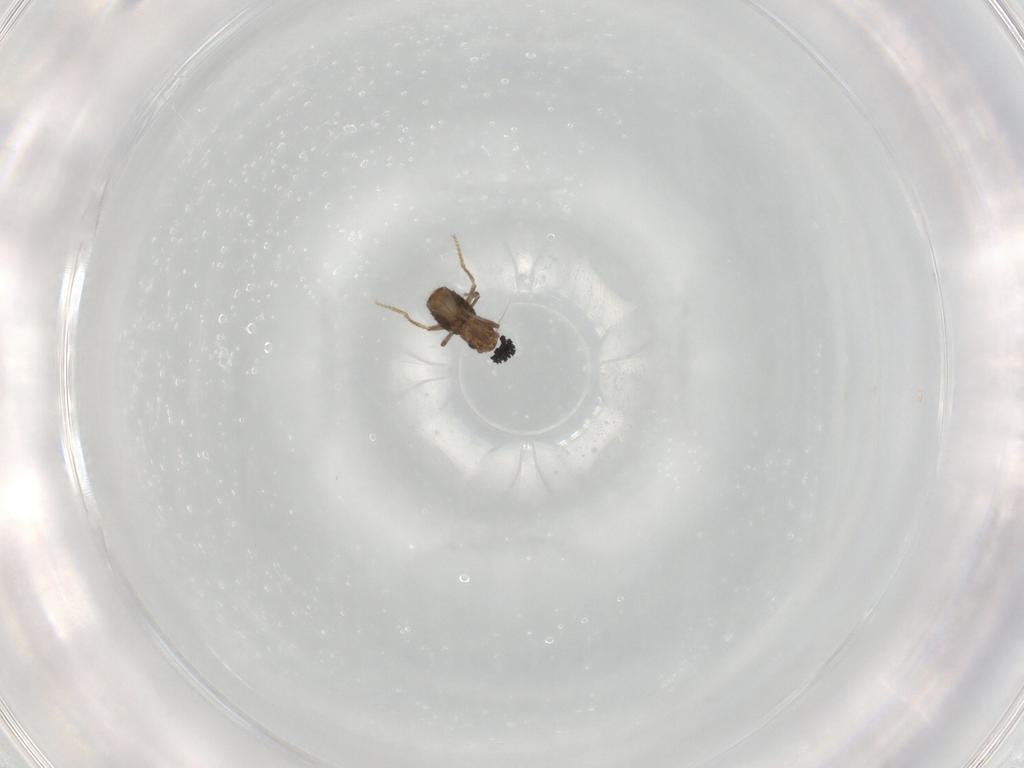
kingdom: Animalia
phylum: Arthropoda
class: Insecta
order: Diptera
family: Phoridae
